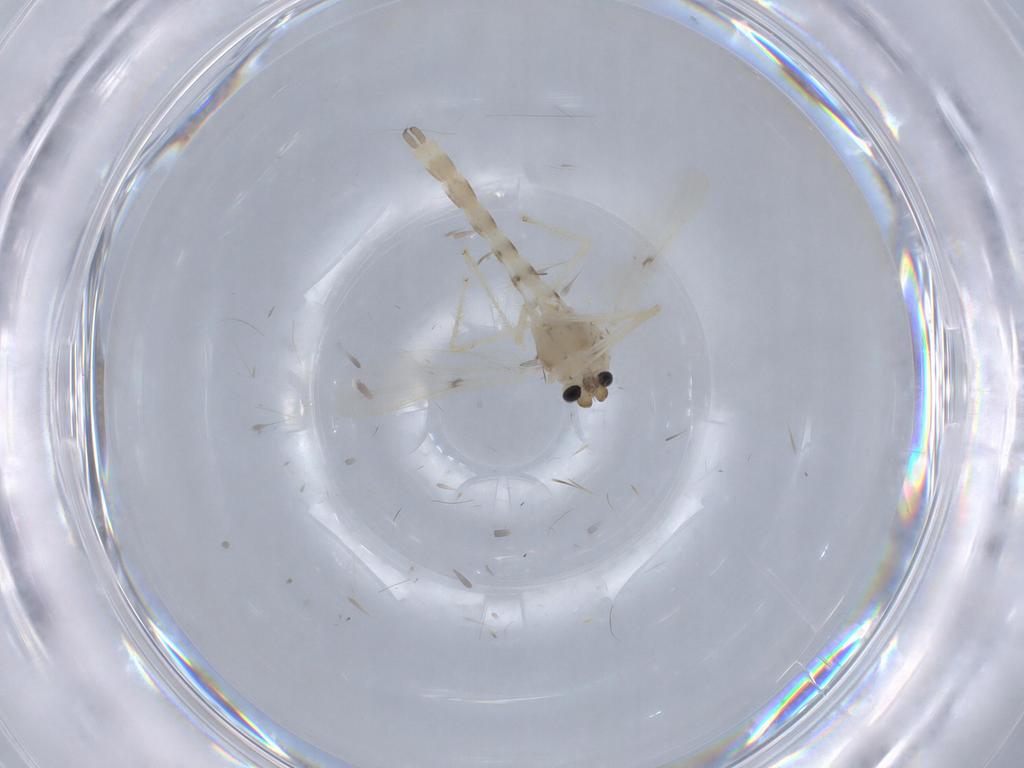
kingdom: Animalia
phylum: Arthropoda
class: Insecta
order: Diptera
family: Chironomidae
